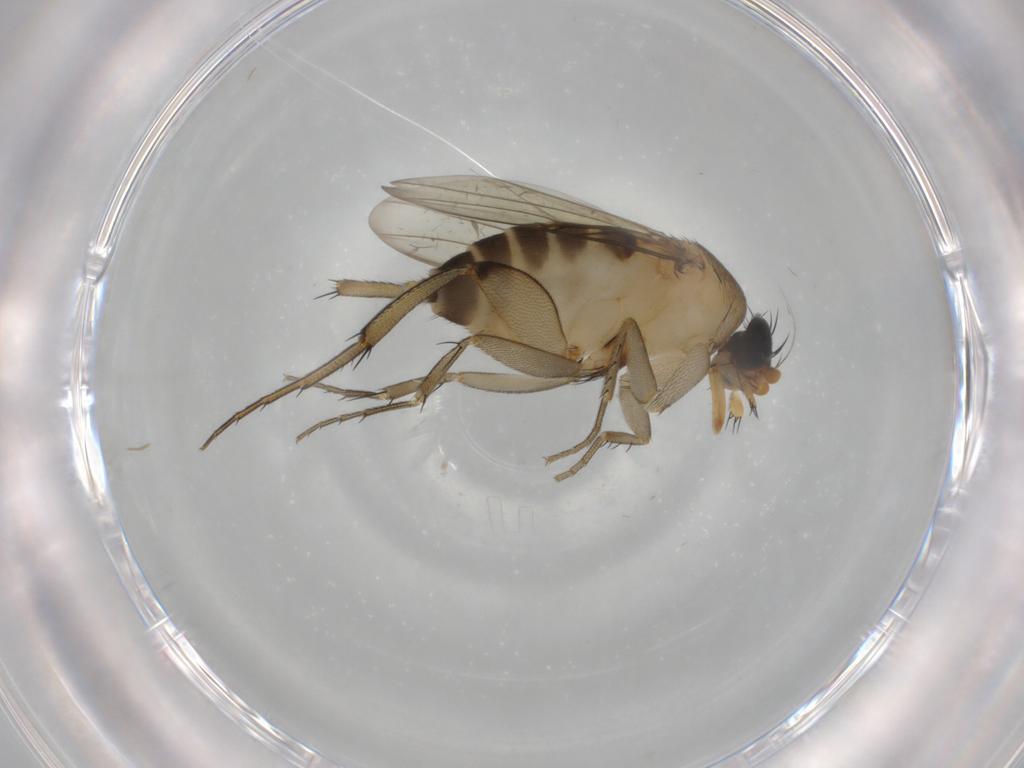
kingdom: Animalia
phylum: Arthropoda
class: Insecta
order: Diptera
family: Phoridae
